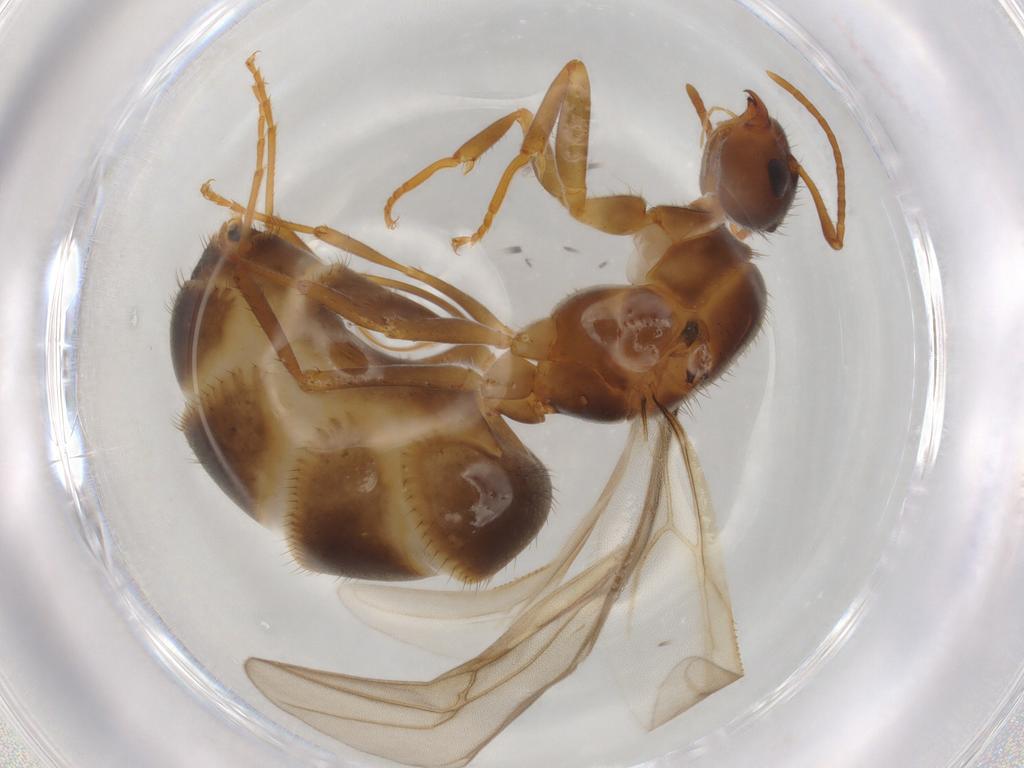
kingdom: Animalia
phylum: Arthropoda
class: Insecta
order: Hymenoptera
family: Formicidae
